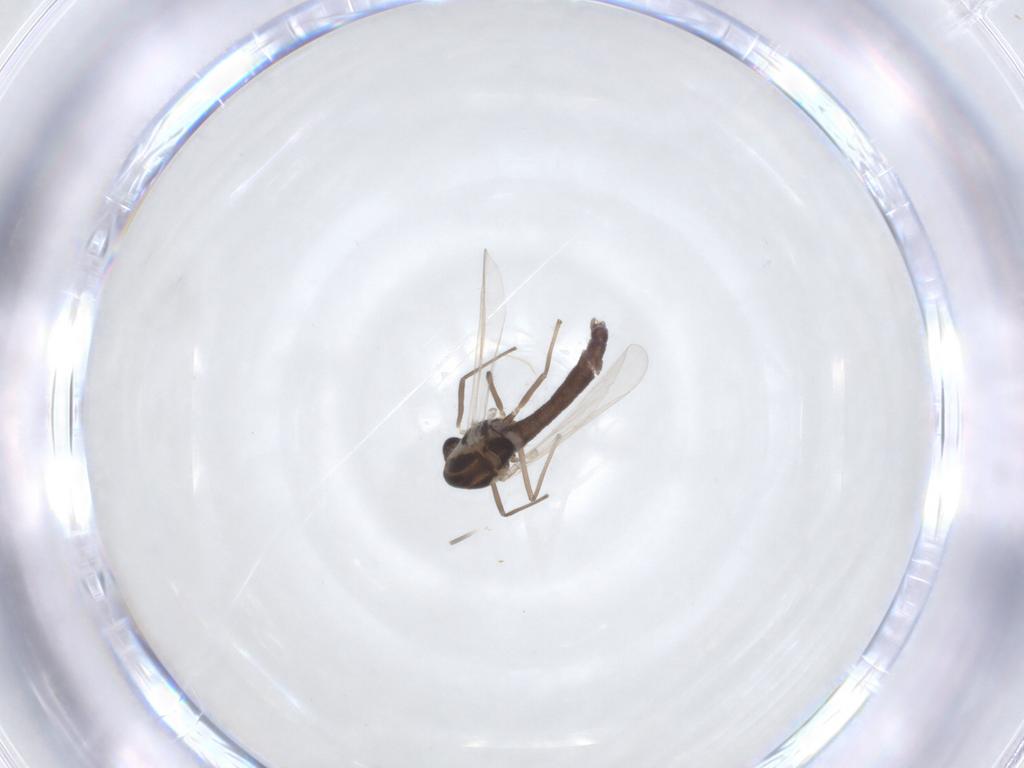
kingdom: Animalia
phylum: Arthropoda
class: Insecta
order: Diptera
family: Chironomidae
